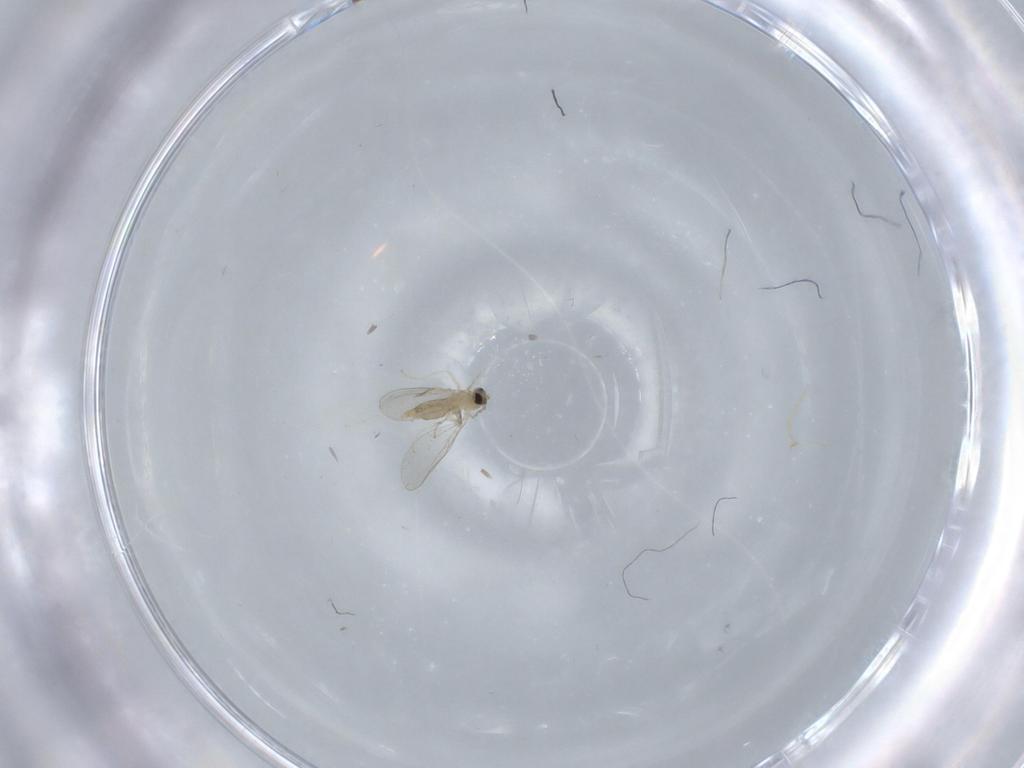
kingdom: Animalia
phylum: Arthropoda
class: Insecta
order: Diptera
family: Cecidomyiidae
